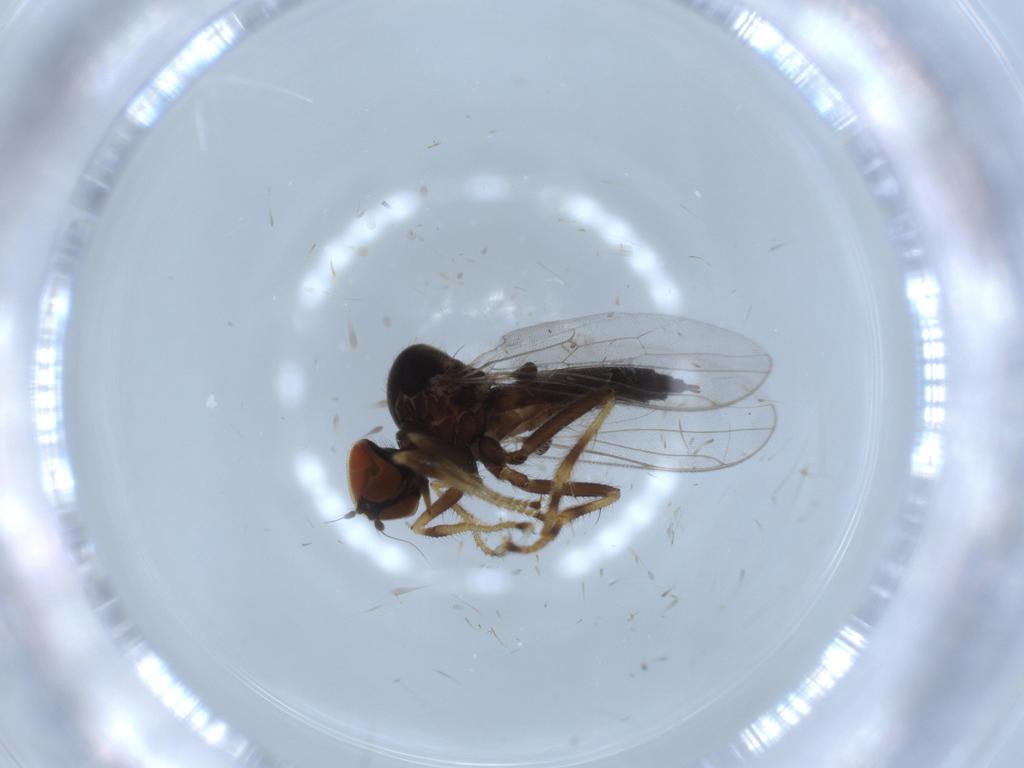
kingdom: Animalia
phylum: Arthropoda
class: Insecta
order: Diptera
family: Hybotidae
